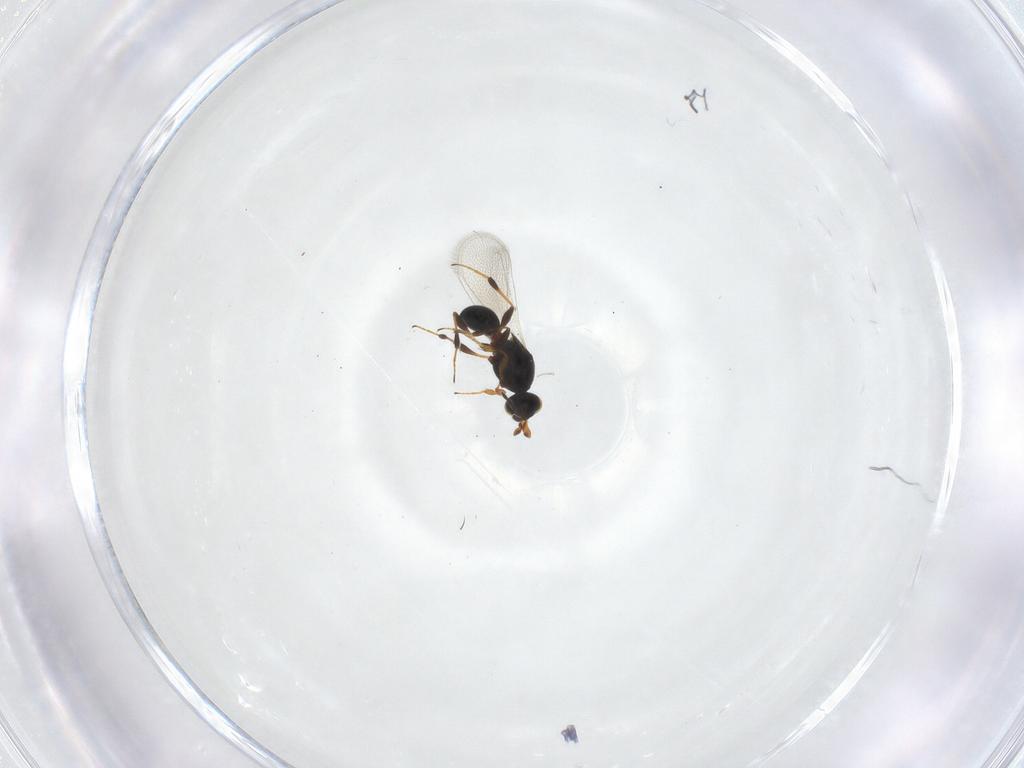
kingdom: Animalia
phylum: Arthropoda
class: Insecta
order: Hymenoptera
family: Platygastridae
